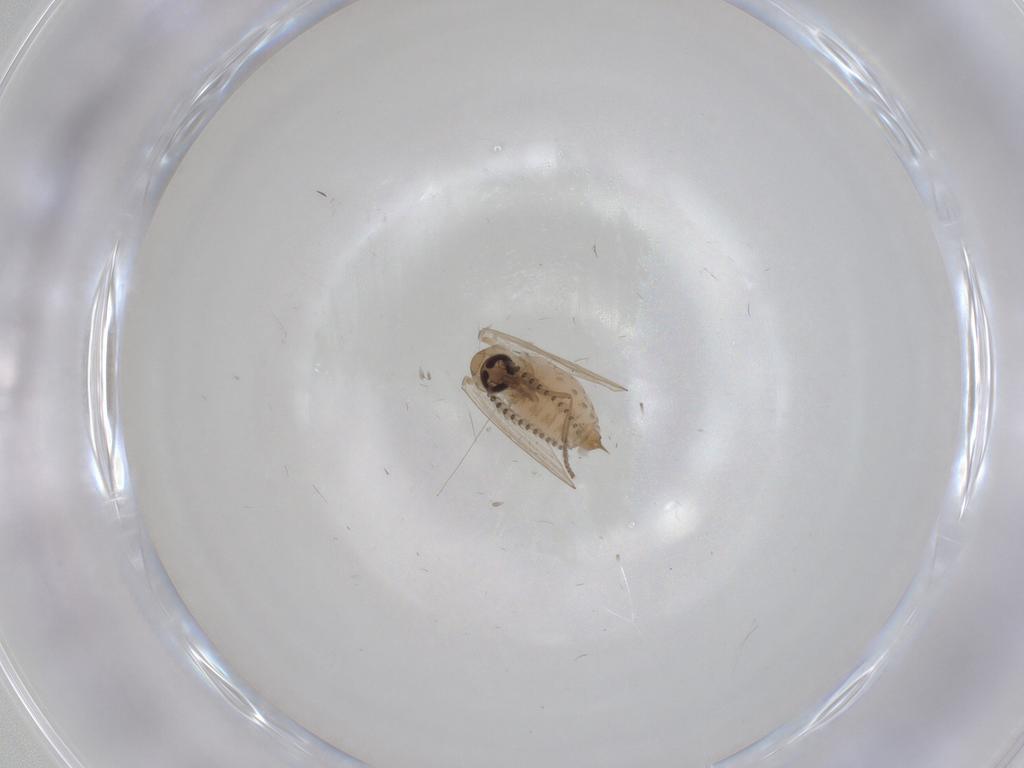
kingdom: Animalia
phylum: Arthropoda
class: Insecta
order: Diptera
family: Psychodidae
